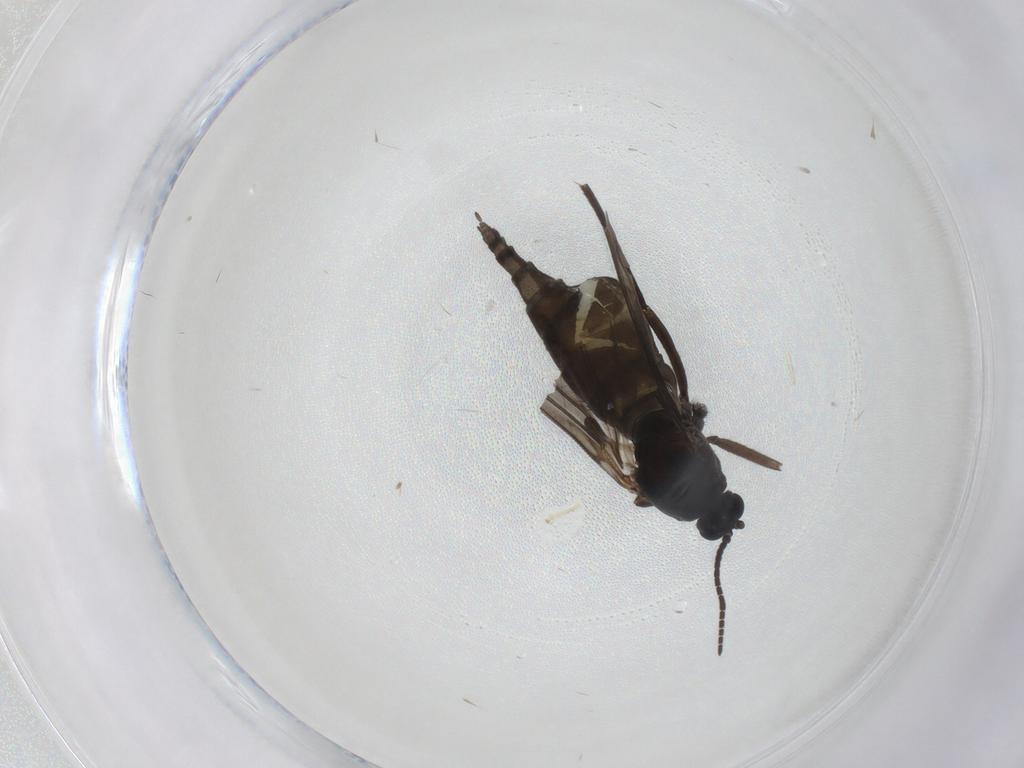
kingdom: Animalia
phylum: Arthropoda
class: Insecta
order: Diptera
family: Sciaridae
